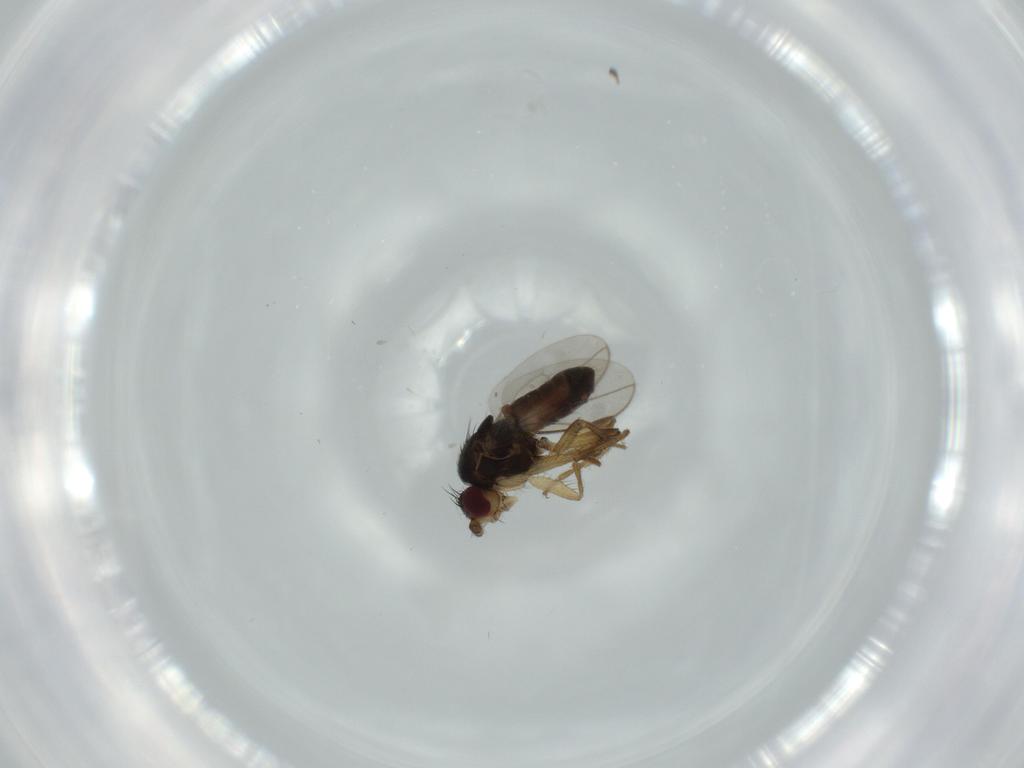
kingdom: Animalia
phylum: Arthropoda
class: Insecta
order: Diptera
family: Sphaeroceridae
